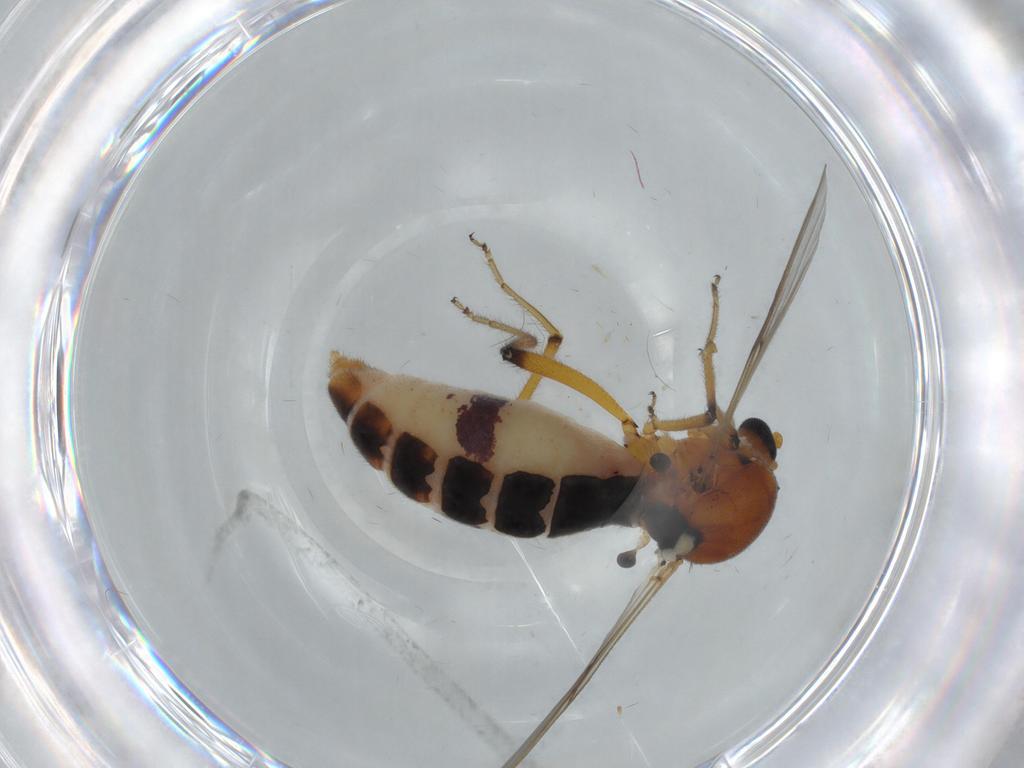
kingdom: Animalia
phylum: Arthropoda
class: Insecta
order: Diptera
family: Ceratopogonidae
